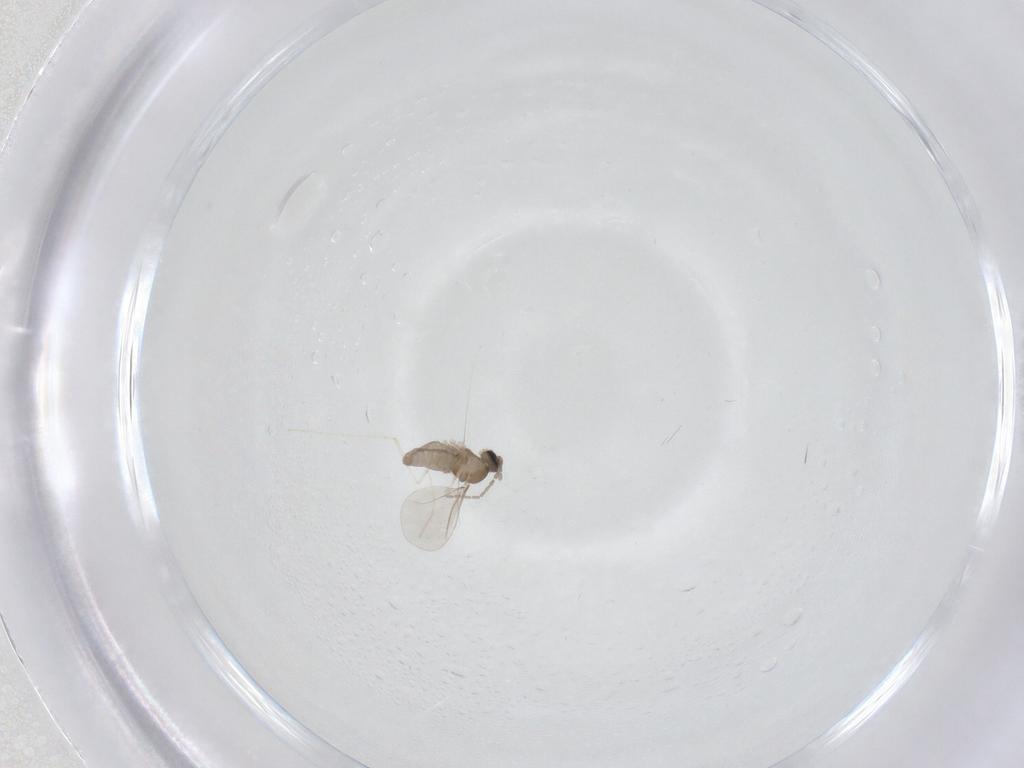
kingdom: Animalia
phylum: Arthropoda
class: Insecta
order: Diptera
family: Cecidomyiidae
